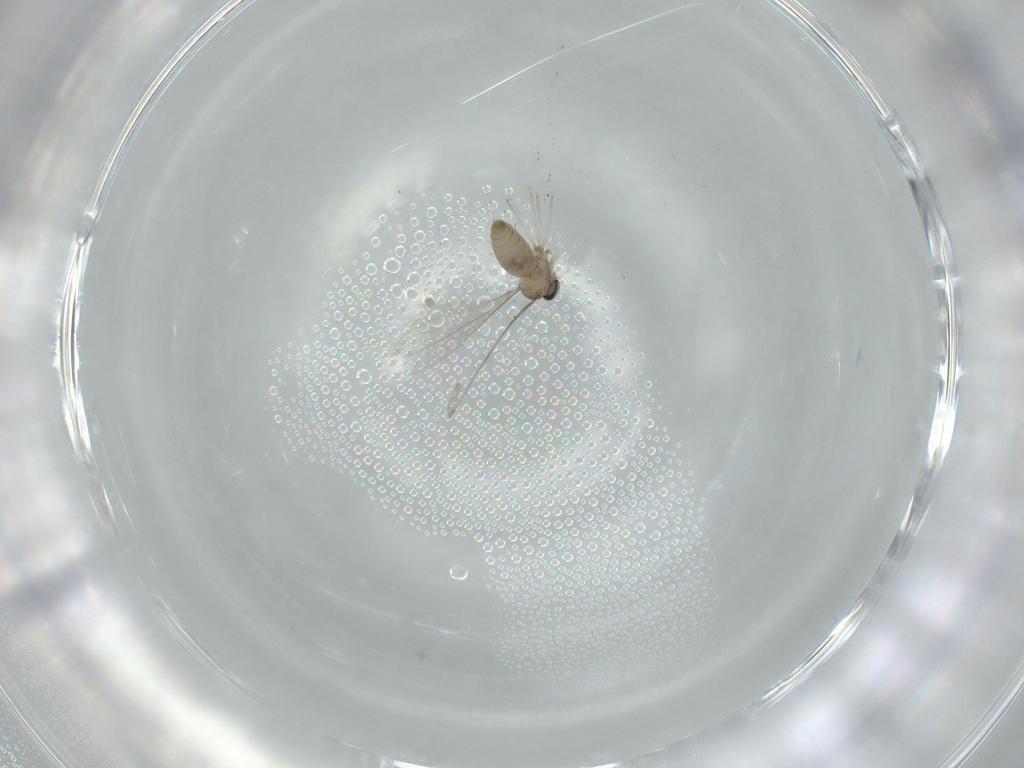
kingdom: Animalia
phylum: Arthropoda
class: Insecta
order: Diptera
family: Cecidomyiidae
